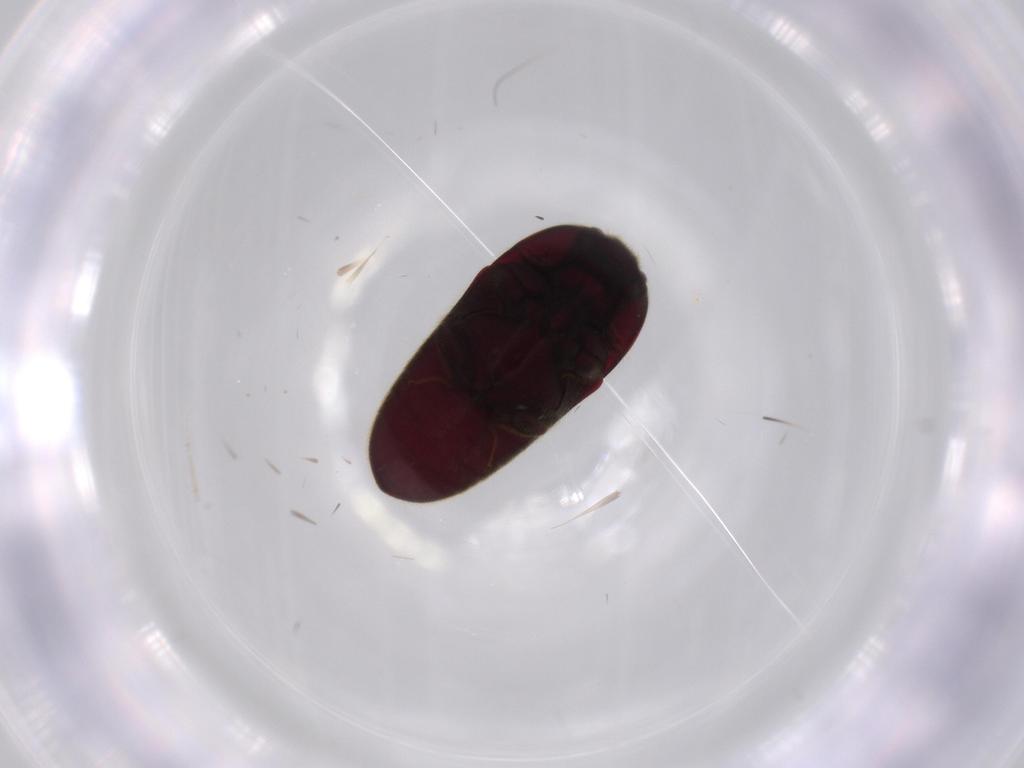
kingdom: Animalia
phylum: Arthropoda
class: Insecta
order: Coleoptera
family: Throscidae
